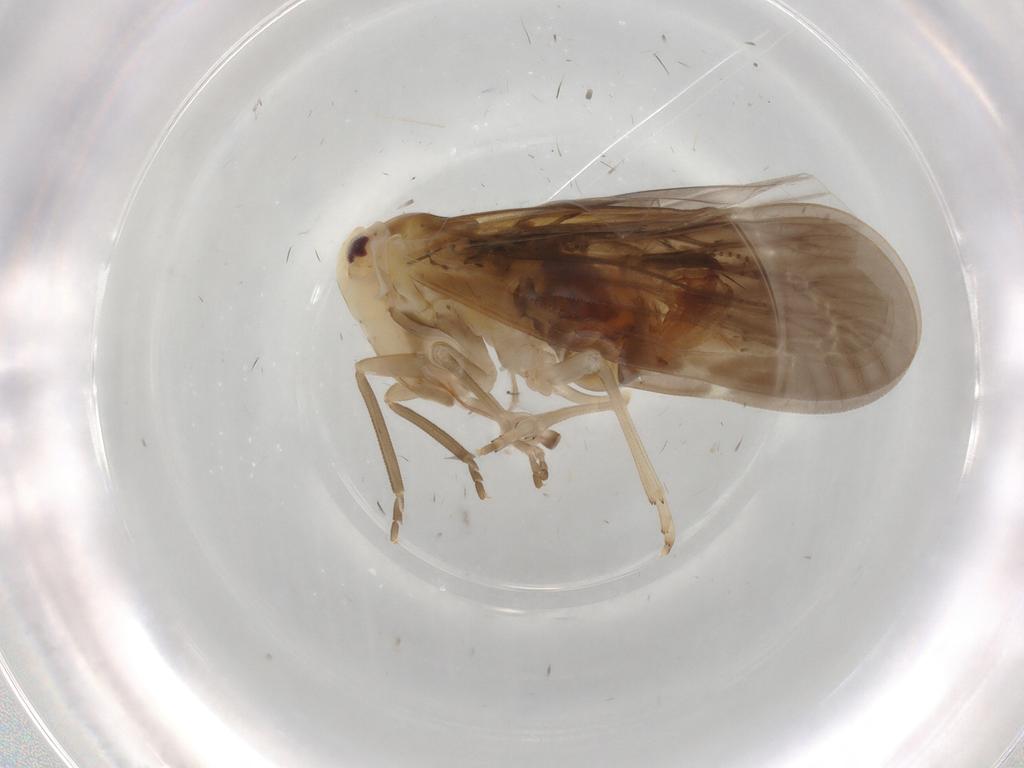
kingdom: Animalia
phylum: Arthropoda
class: Insecta
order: Hemiptera
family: Derbidae
